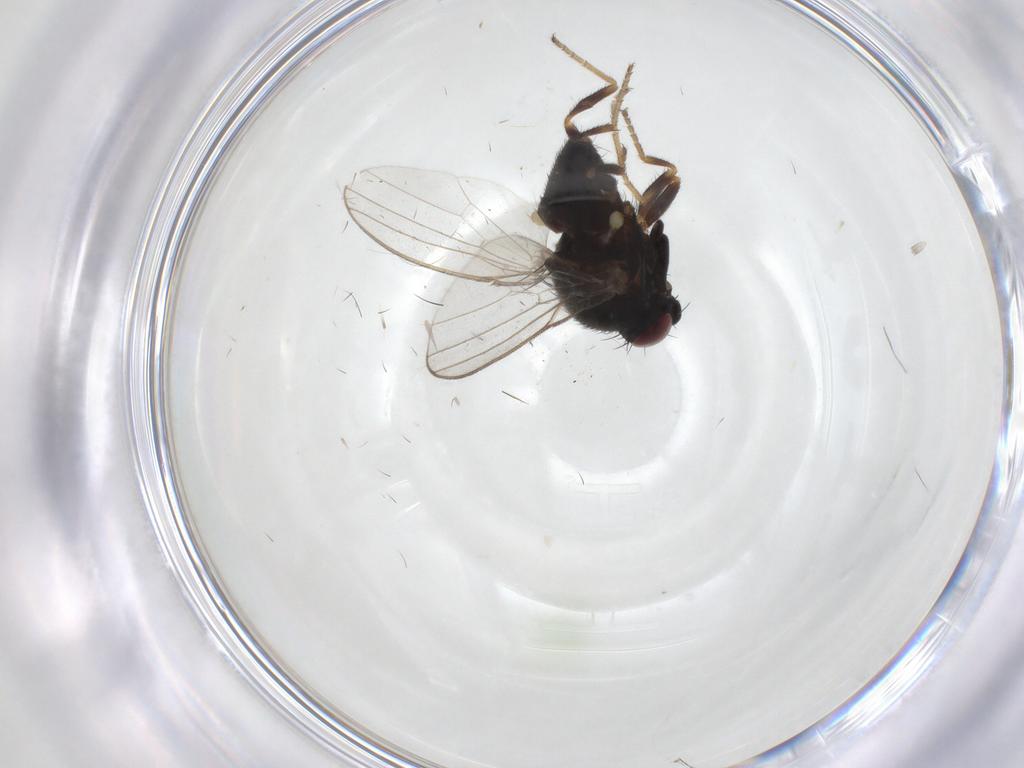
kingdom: Animalia
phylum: Arthropoda
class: Insecta
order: Diptera
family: Milichiidae
